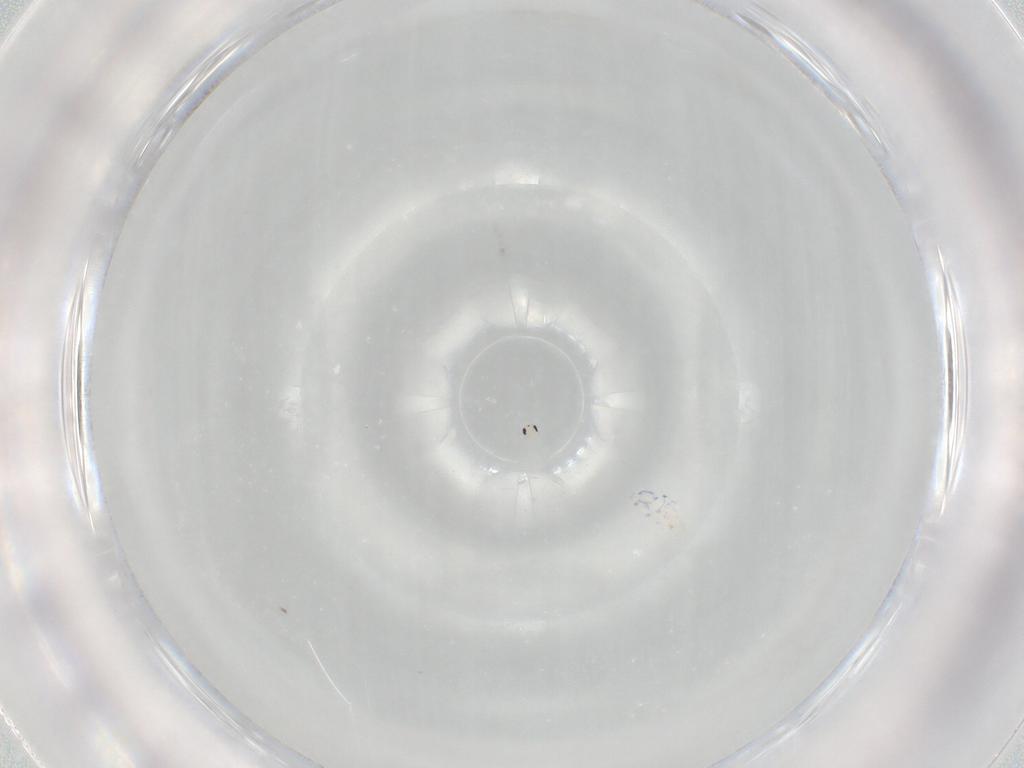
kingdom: Animalia
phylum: Arthropoda
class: Collembola
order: Entomobryomorpha
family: Entomobryidae
